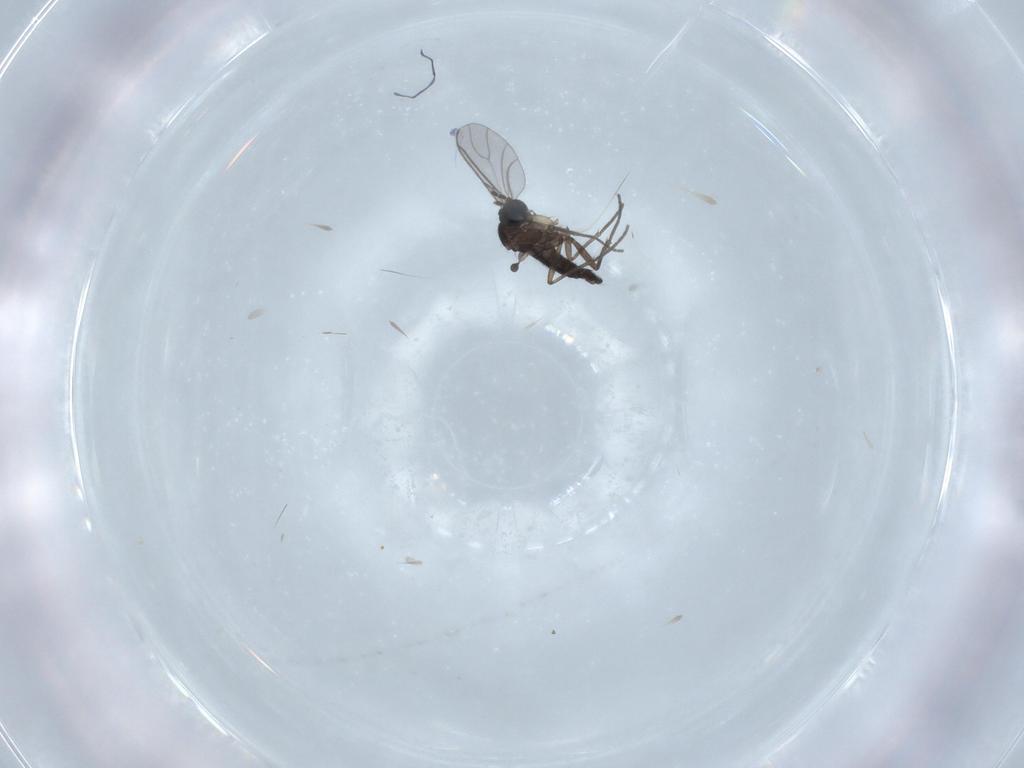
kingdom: Animalia
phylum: Arthropoda
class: Insecta
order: Diptera
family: Sciaridae
